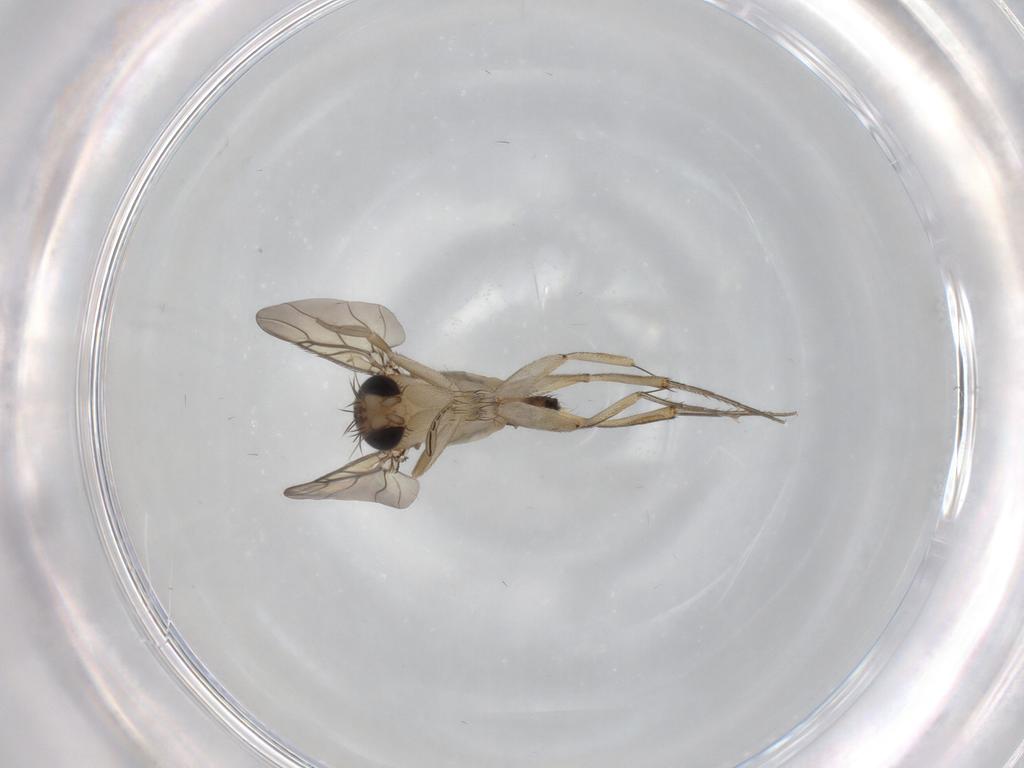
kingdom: Animalia
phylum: Arthropoda
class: Insecta
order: Diptera
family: Phoridae
